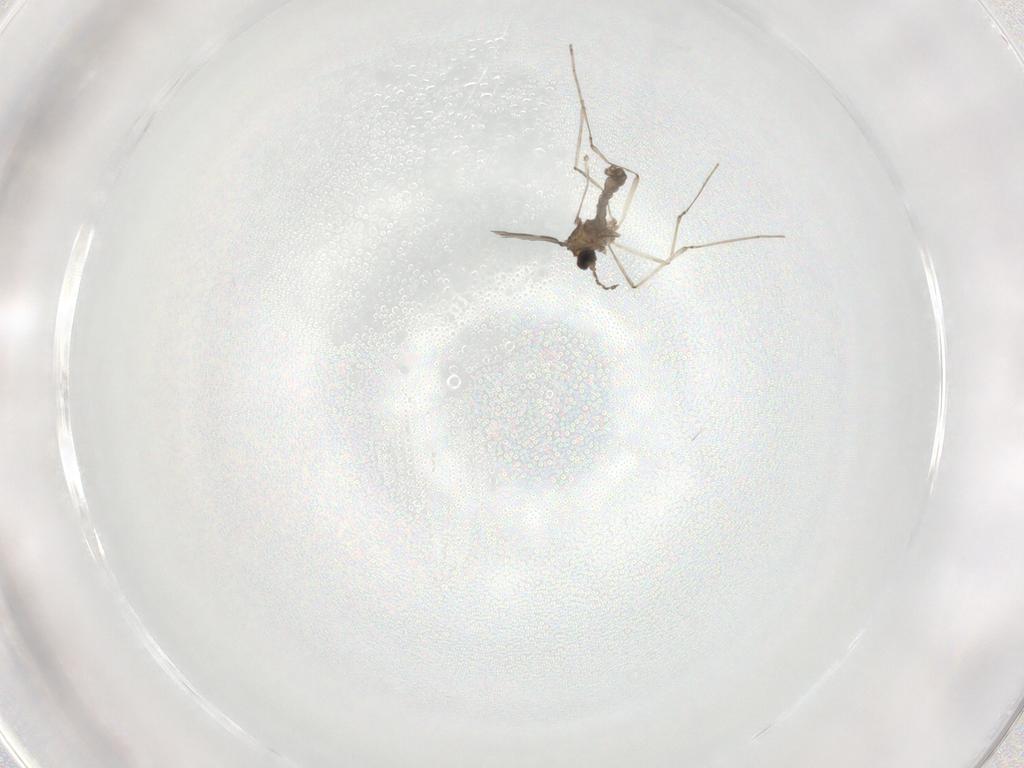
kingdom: Animalia
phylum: Arthropoda
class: Insecta
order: Diptera
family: Cecidomyiidae
